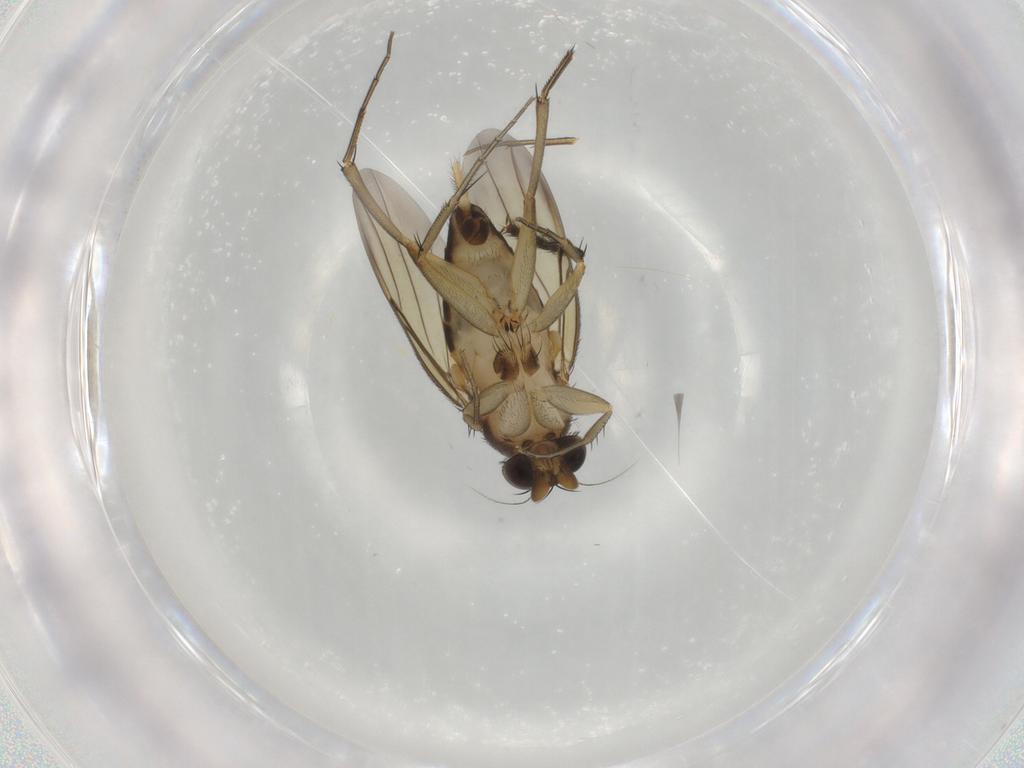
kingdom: Animalia
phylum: Arthropoda
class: Insecta
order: Diptera
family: Phoridae
